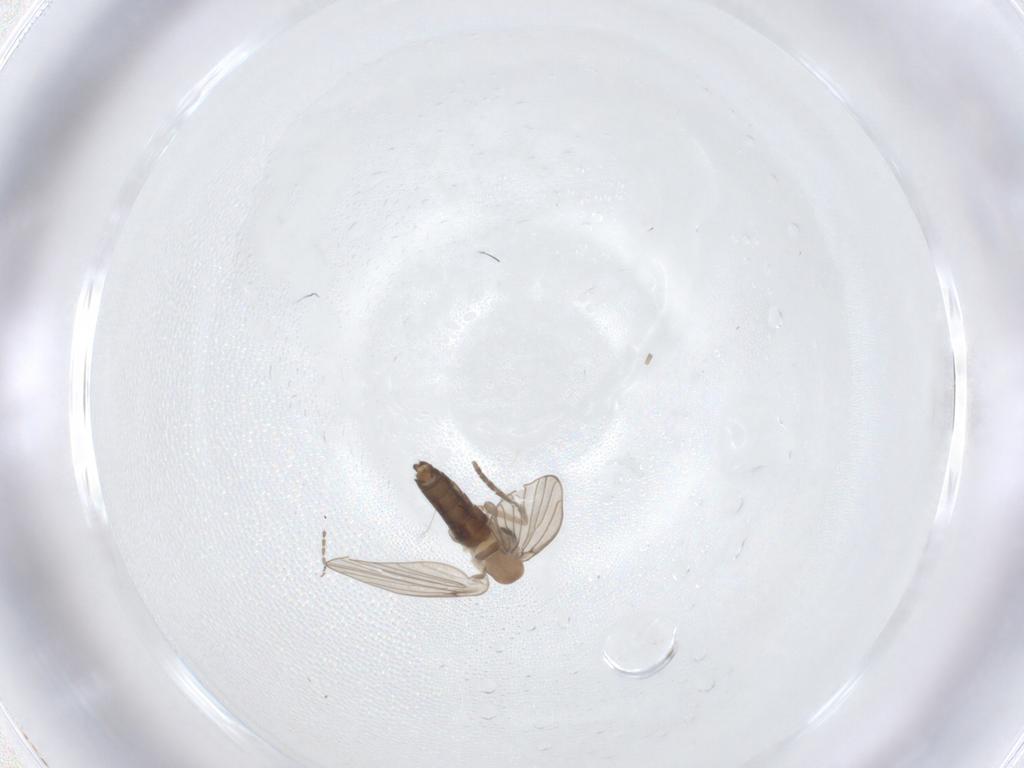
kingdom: Animalia
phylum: Arthropoda
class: Insecta
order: Diptera
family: Psychodidae
